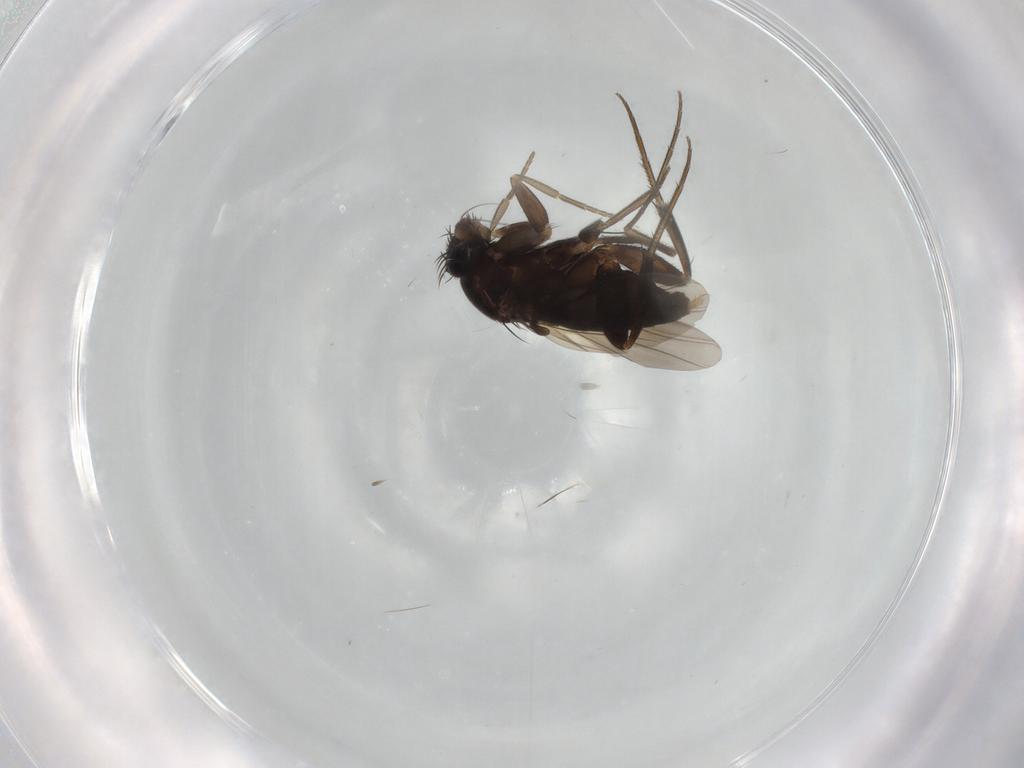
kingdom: Animalia
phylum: Arthropoda
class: Insecta
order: Diptera
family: Phoridae
